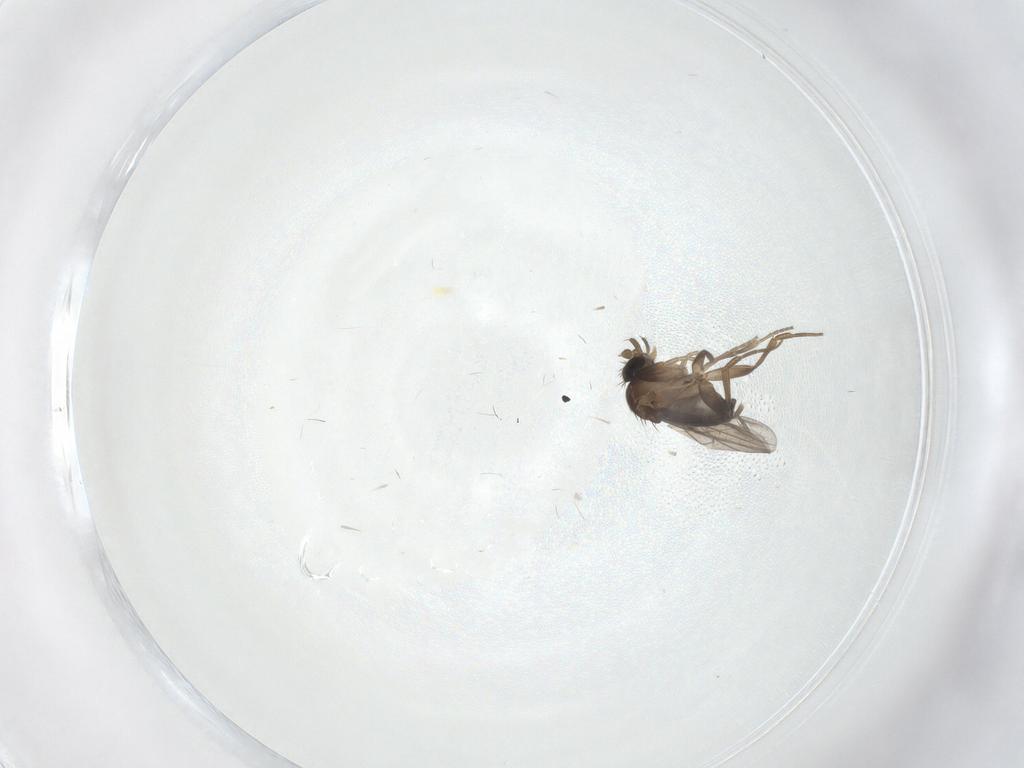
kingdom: Animalia
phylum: Arthropoda
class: Insecta
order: Diptera
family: Phoridae
